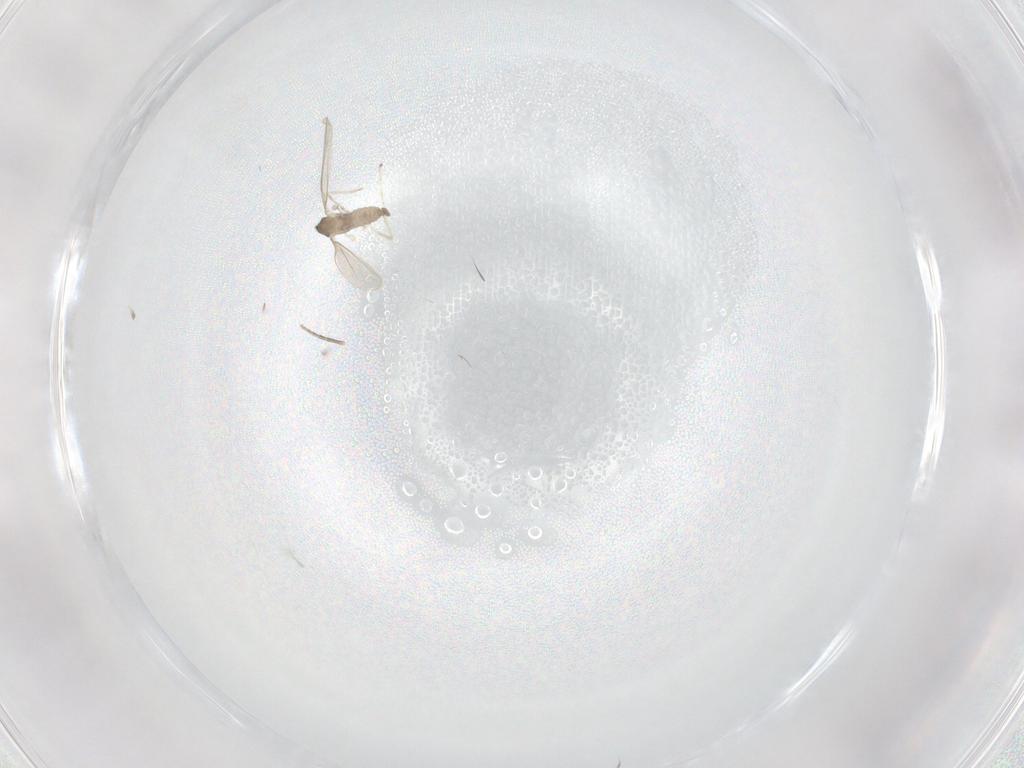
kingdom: Animalia
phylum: Arthropoda
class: Insecta
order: Diptera
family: Phoridae
